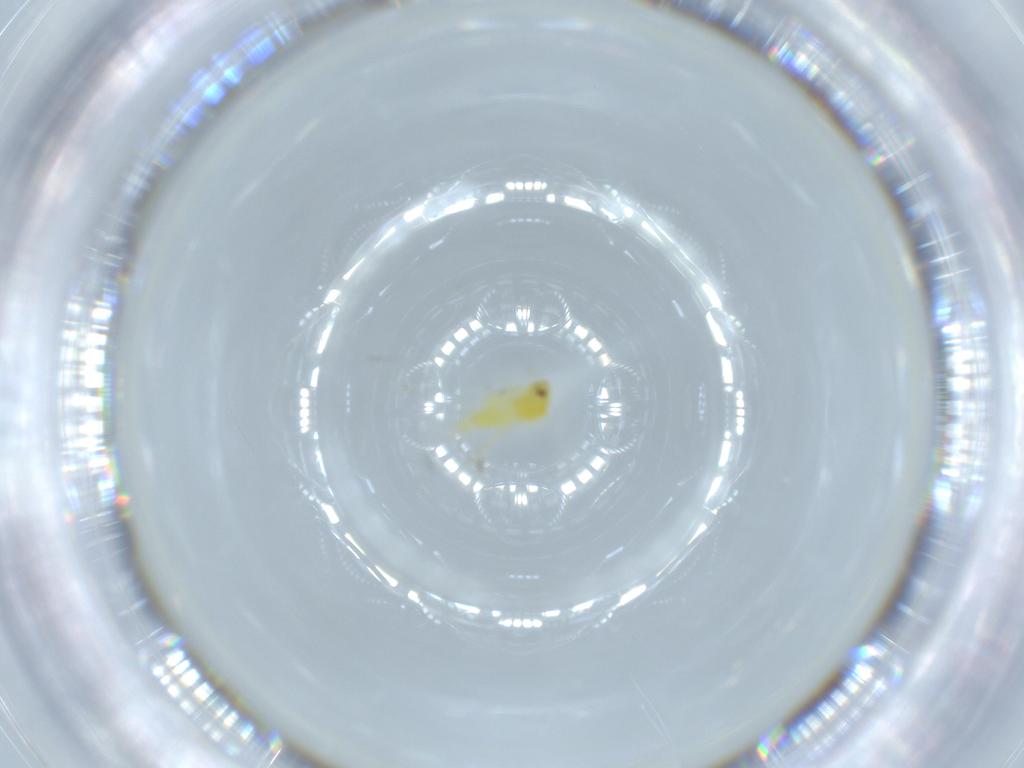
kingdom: Animalia
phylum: Arthropoda
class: Insecta
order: Hemiptera
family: Aleyrodidae
